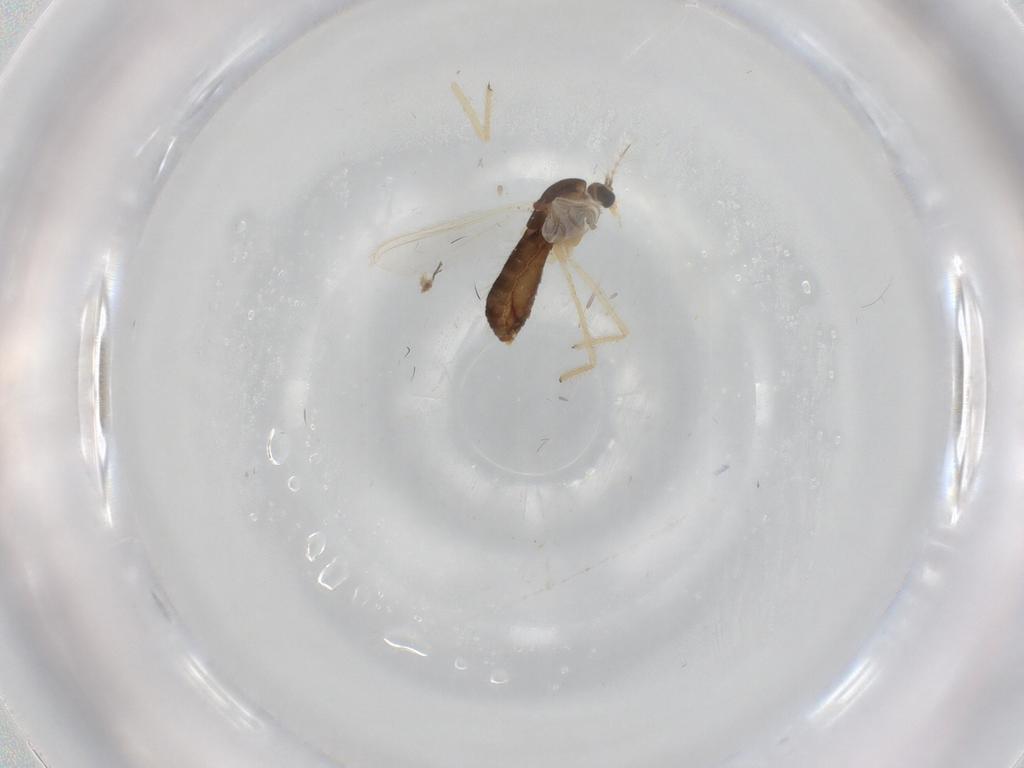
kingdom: Animalia
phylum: Arthropoda
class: Insecta
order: Diptera
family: Chironomidae
